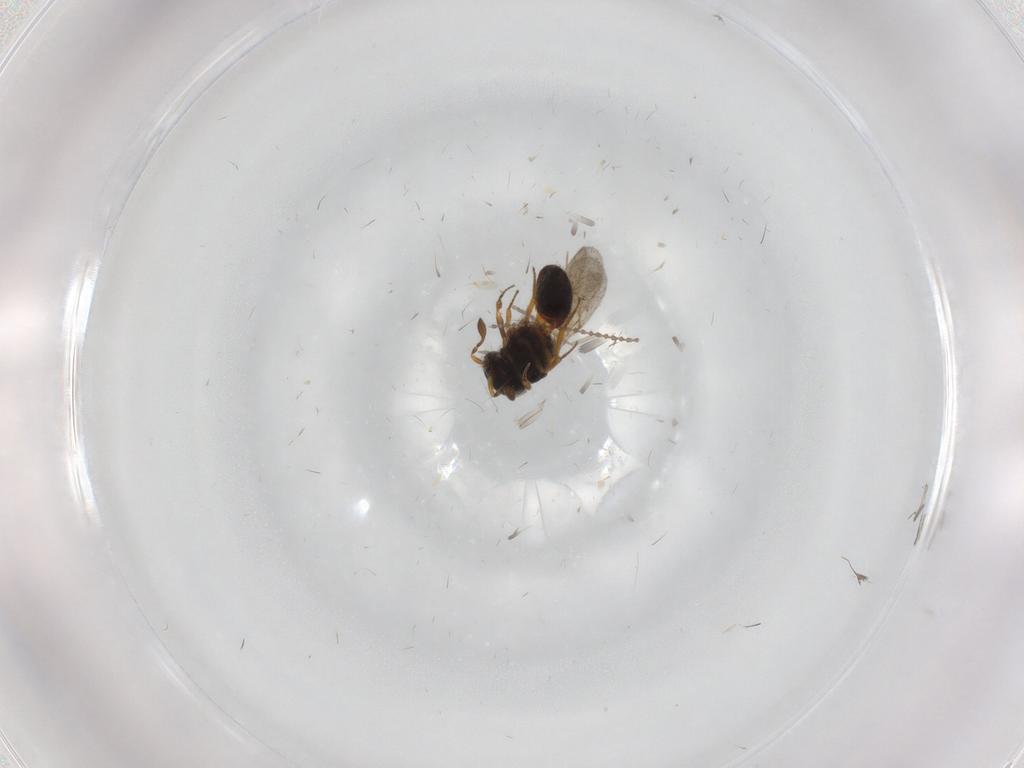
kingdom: Animalia
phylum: Arthropoda
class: Insecta
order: Hymenoptera
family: Scelionidae
